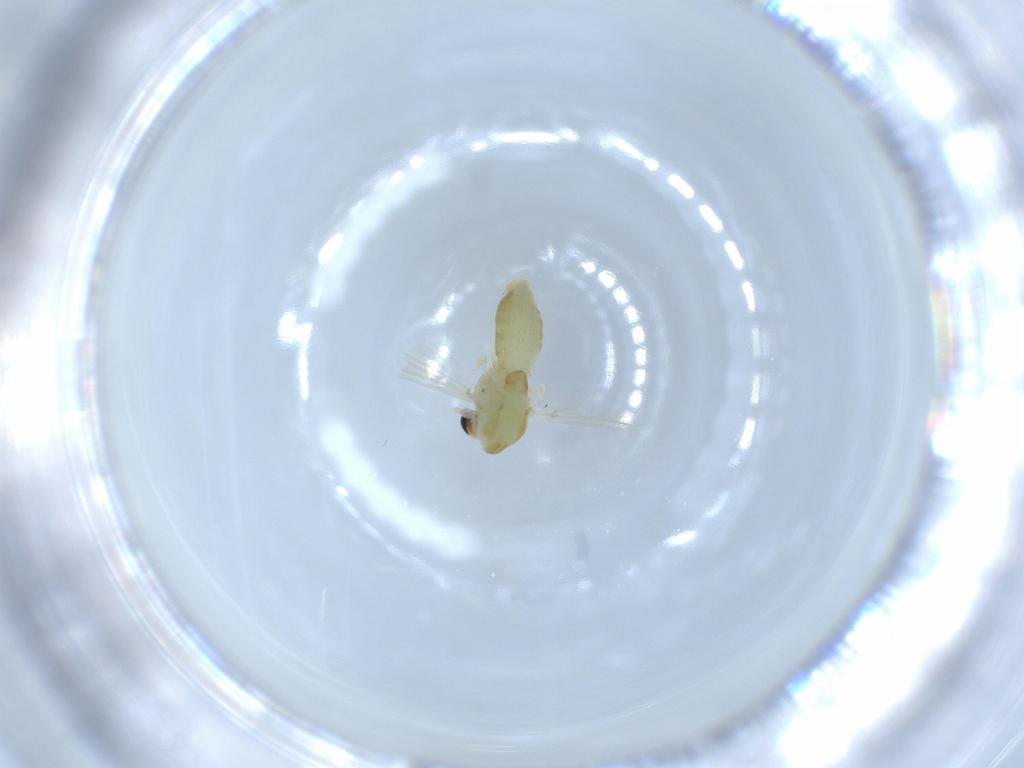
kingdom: Animalia
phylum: Arthropoda
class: Insecta
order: Diptera
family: Chironomidae
